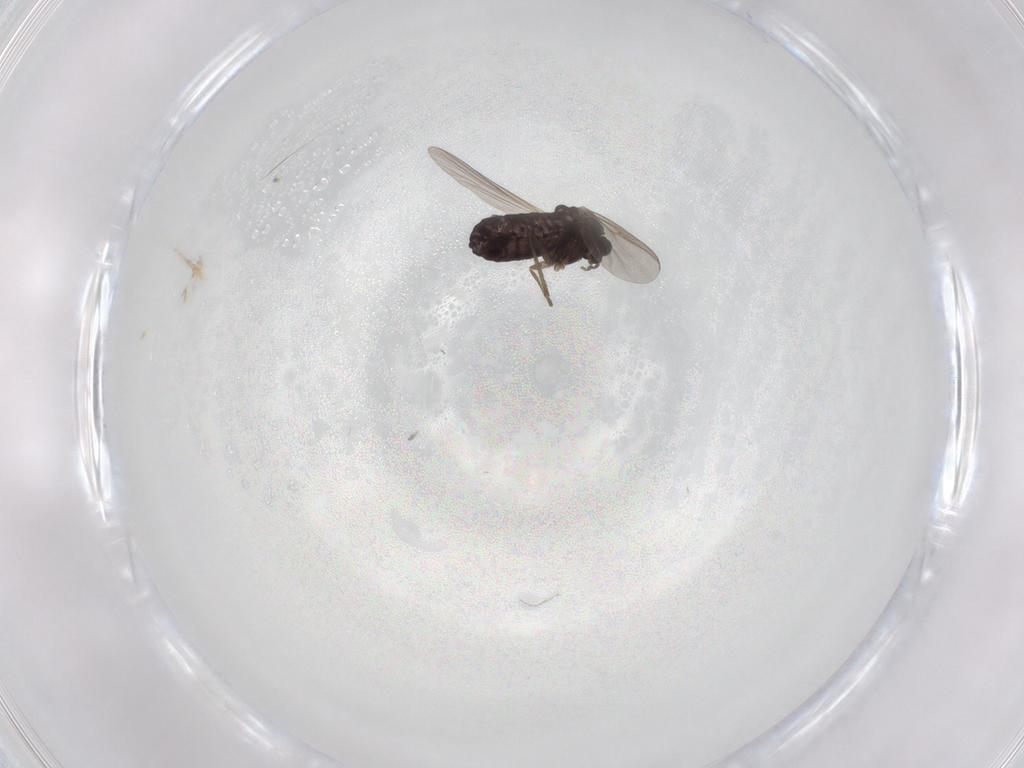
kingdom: Animalia
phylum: Arthropoda
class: Insecta
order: Diptera
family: Chironomidae
